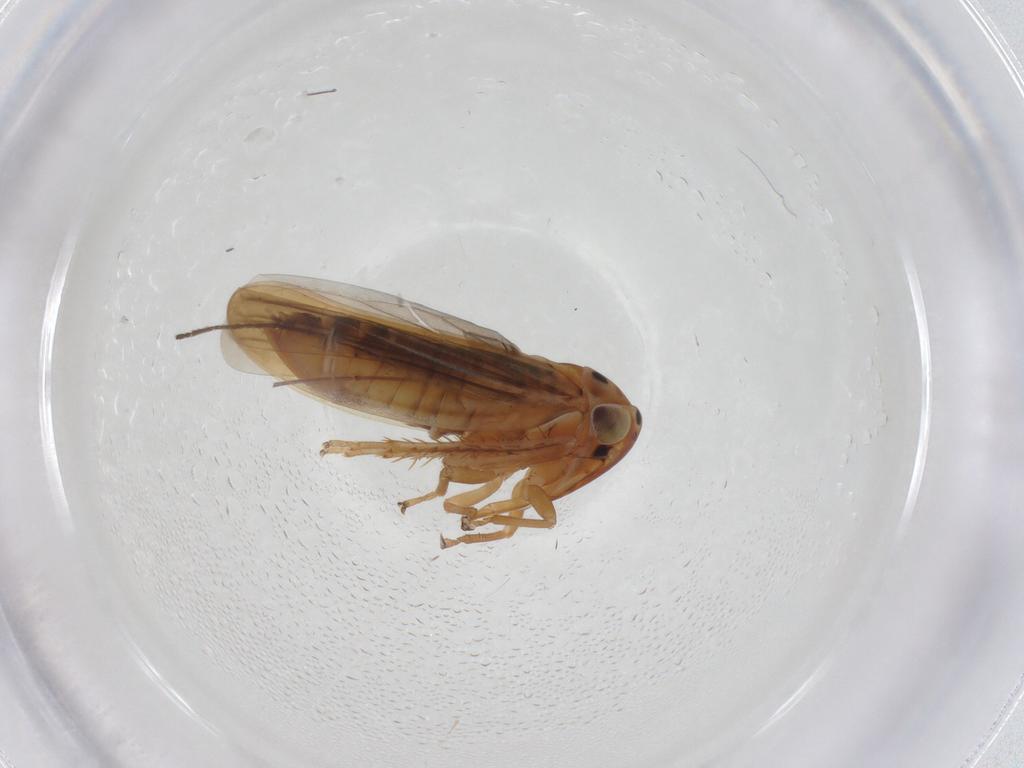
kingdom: Animalia
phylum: Arthropoda
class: Insecta
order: Hemiptera
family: Cicadellidae
